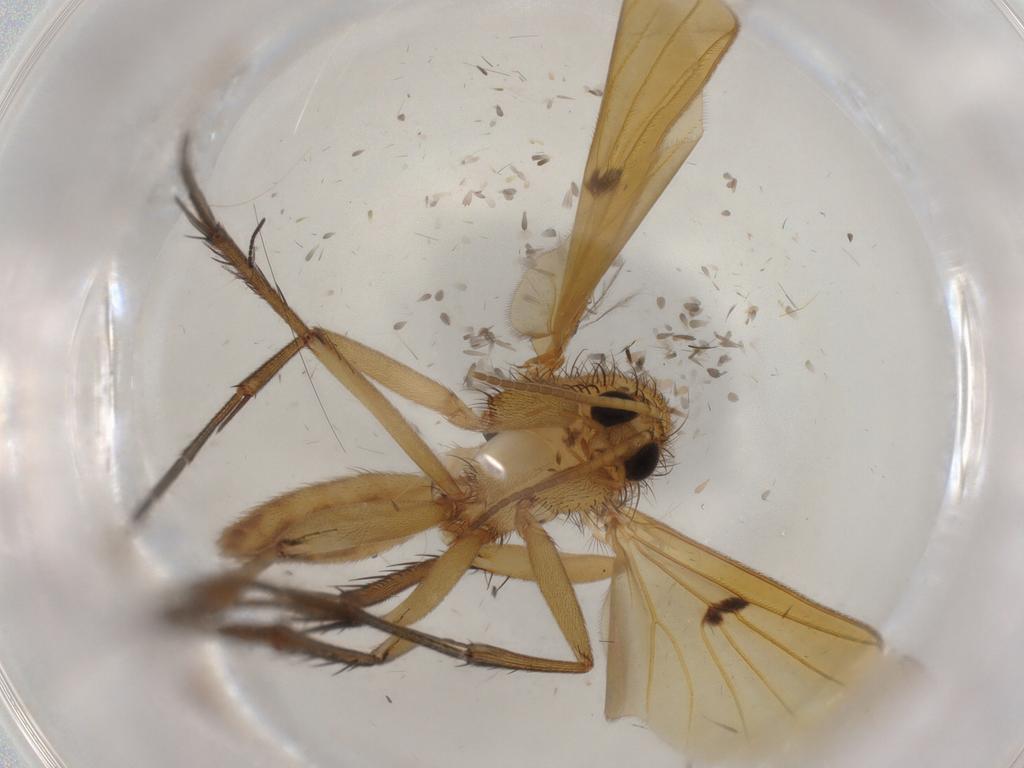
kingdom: Animalia
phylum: Arthropoda
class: Insecta
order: Diptera
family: Mycetophilidae
